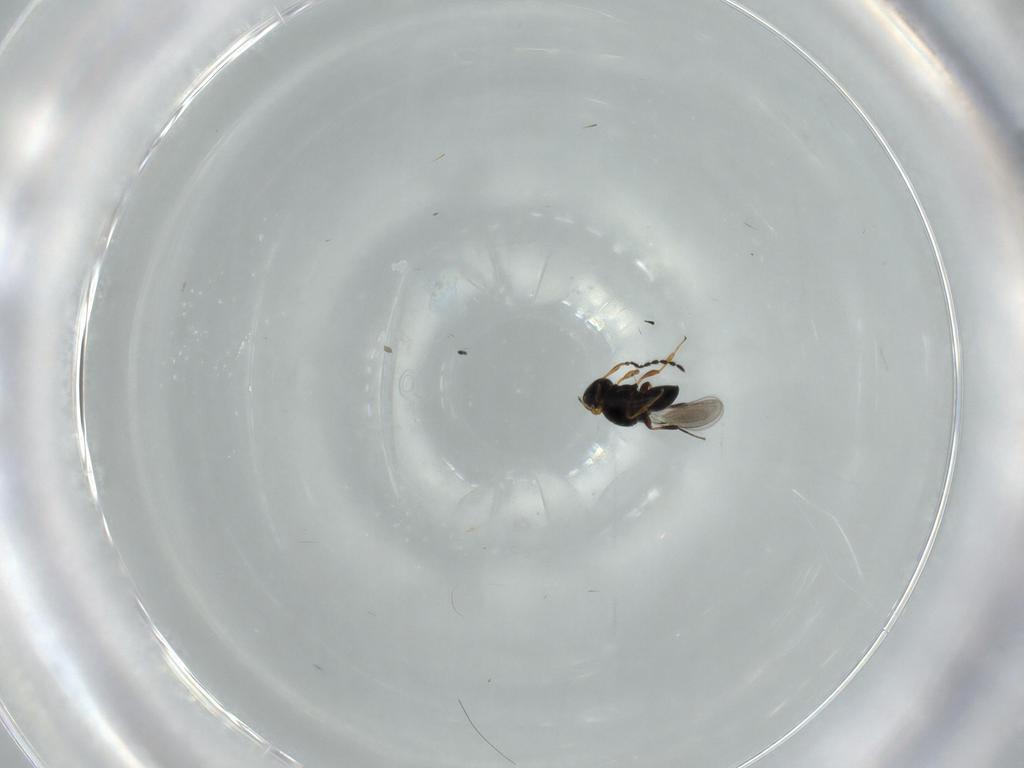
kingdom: Animalia
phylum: Arthropoda
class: Insecta
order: Hymenoptera
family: Platygastridae
